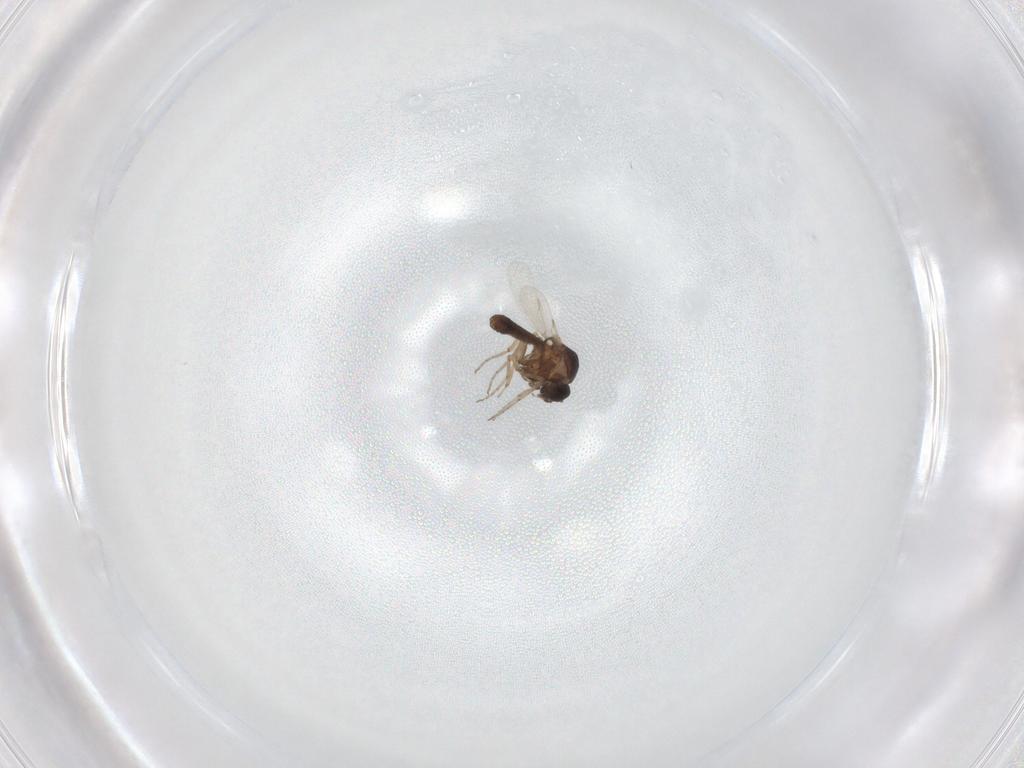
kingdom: Animalia
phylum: Arthropoda
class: Insecta
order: Diptera
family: Ceratopogonidae
